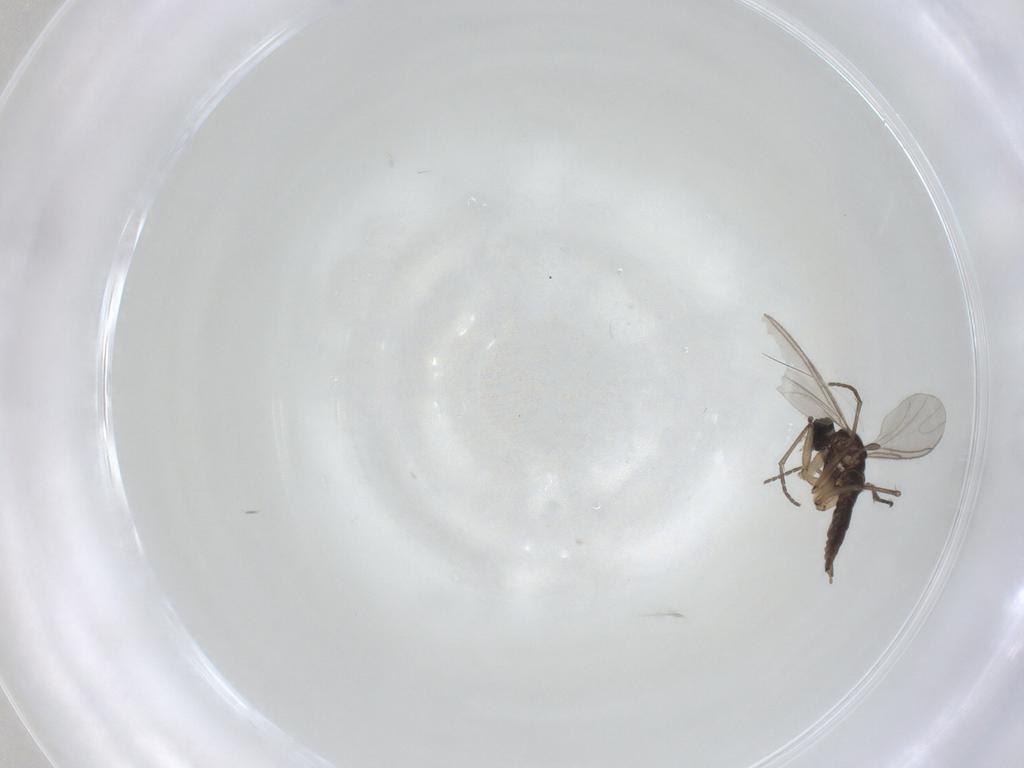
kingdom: Animalia
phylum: Arthropoda
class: Insecta
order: Diptera
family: Sciaridae
